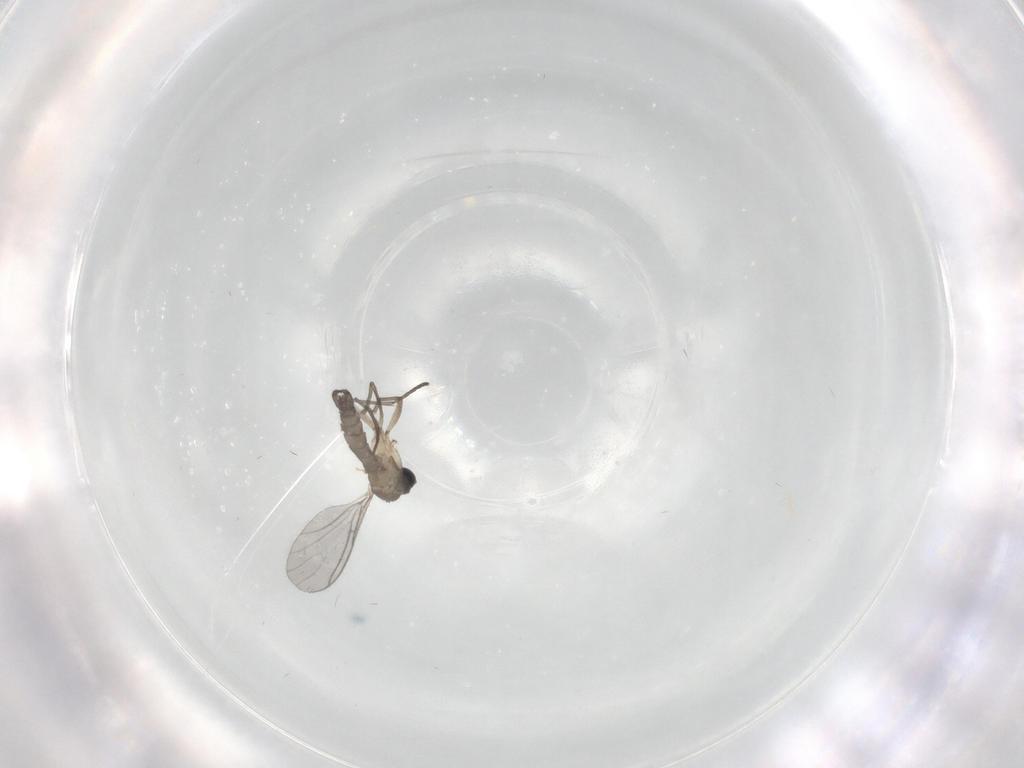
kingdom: Animalia
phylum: Arthropoda
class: Insecta
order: Diptera
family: Sciaridae
